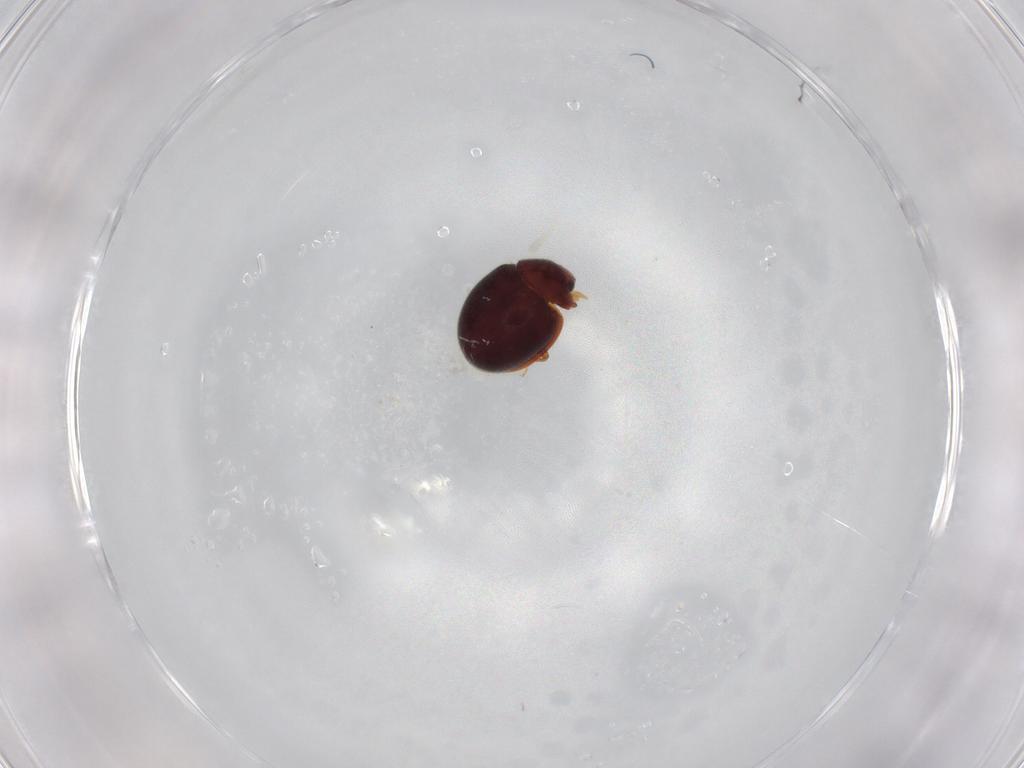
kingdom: Animalia
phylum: Arthropoda
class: Insecta
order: Coleoptera
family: Coccinellidae
